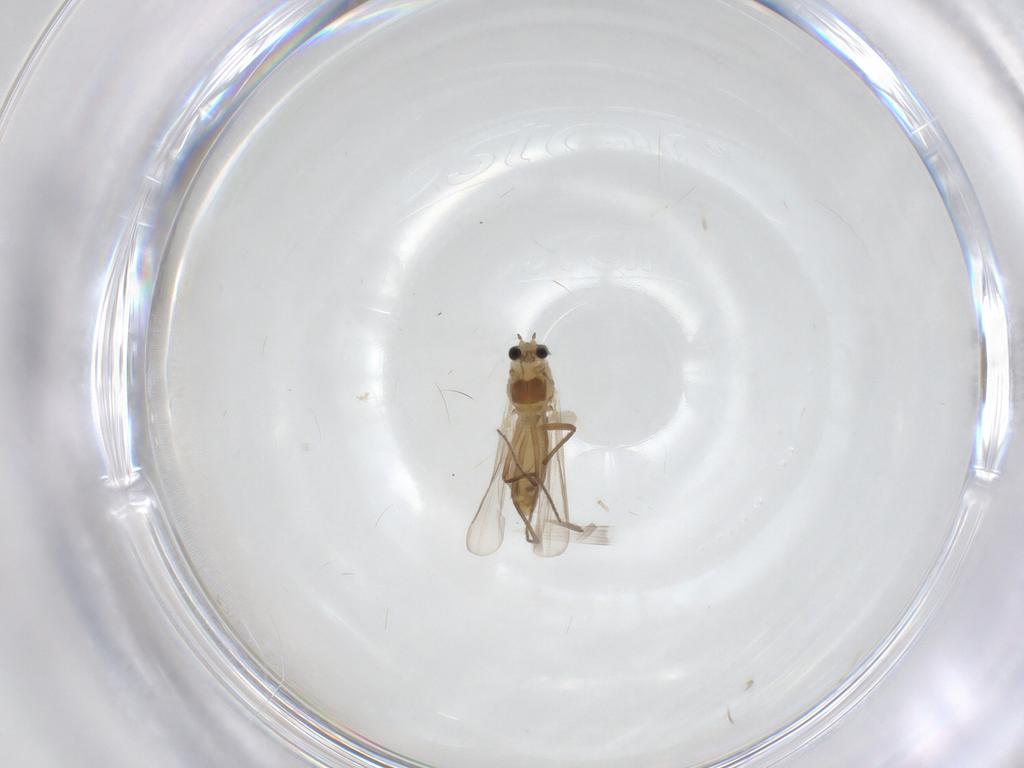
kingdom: Animalia
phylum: Arthropoda
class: Insecta
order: Diptera
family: Chironomidae
